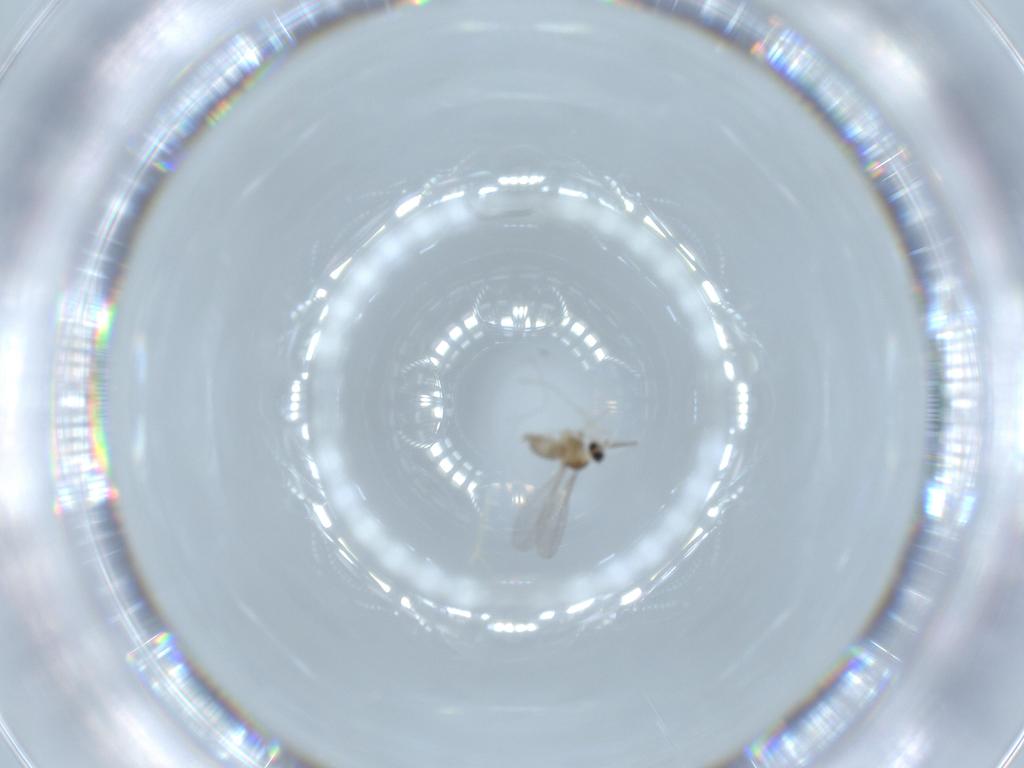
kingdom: Animalia
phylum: Arthropoda
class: Insecta
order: Diptera
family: Cecidomyiidae
